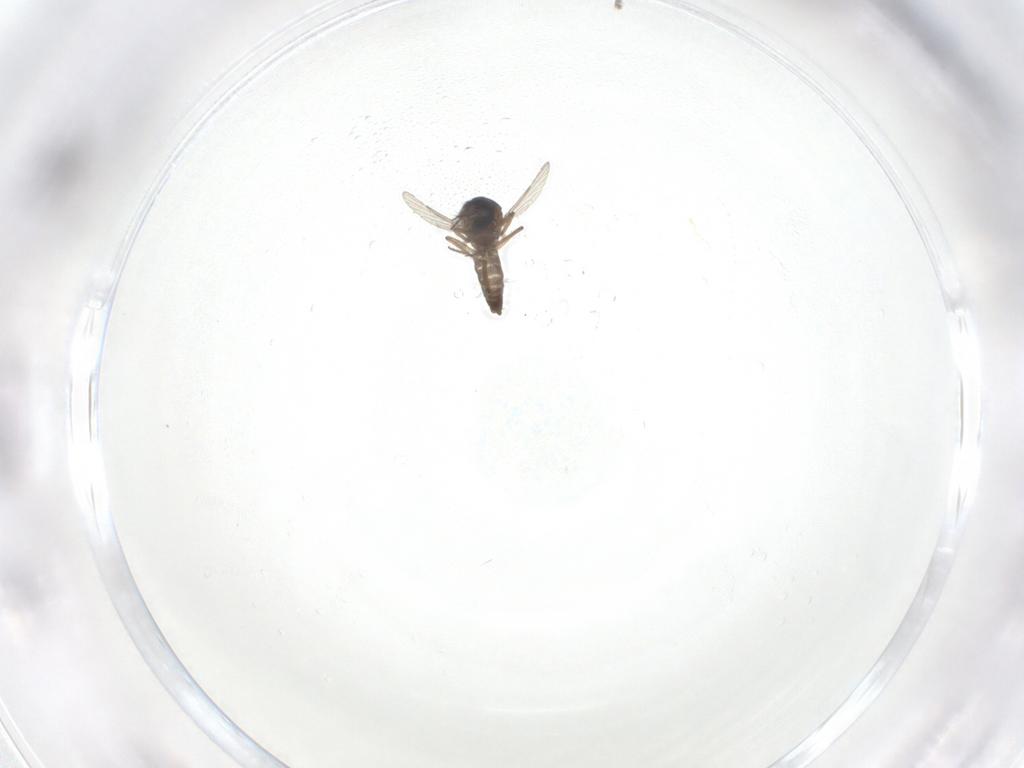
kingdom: Animalia
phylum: Arthropoda
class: Insecta
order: Diptera
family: Ceratopogonidae
